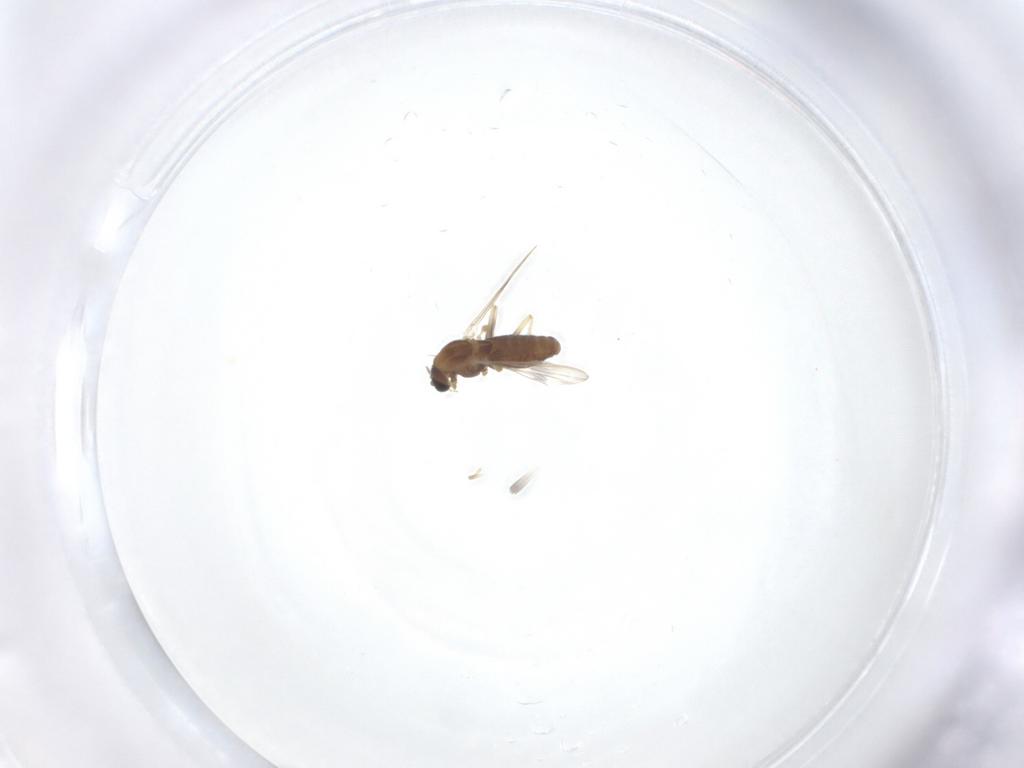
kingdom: Animalia
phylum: Arthropoda
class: Insecta
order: Diptera
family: Chironomidae
